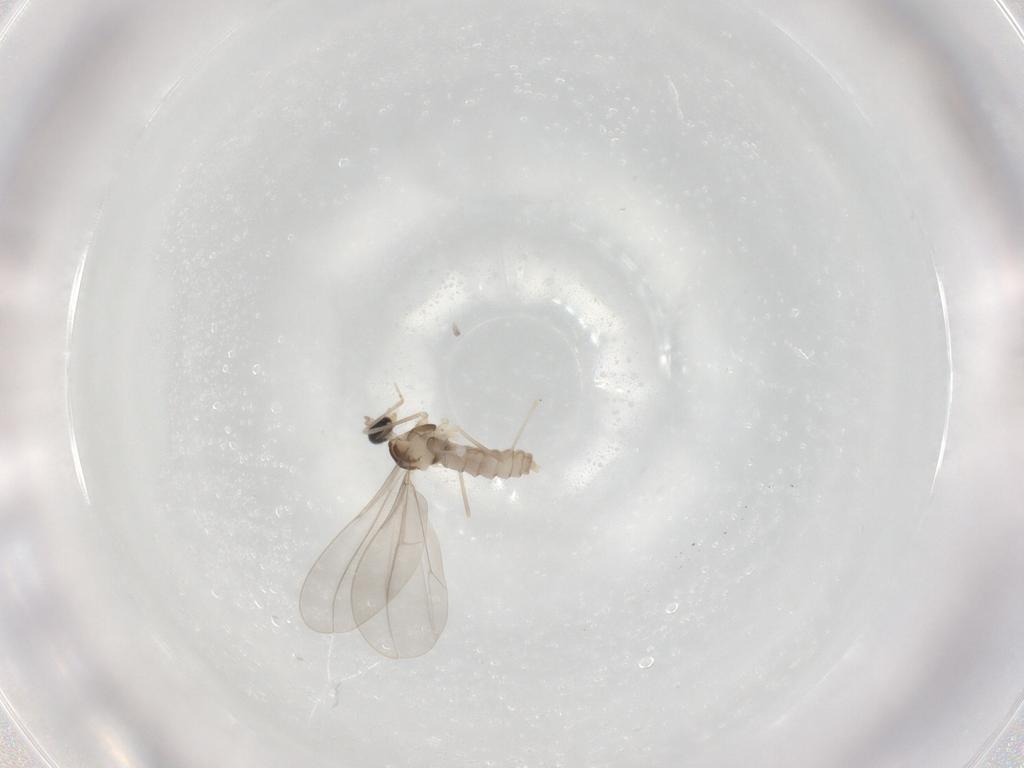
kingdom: Animalia
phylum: Arthropoda
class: Insecta
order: Diptera
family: Cecidomyiidae
